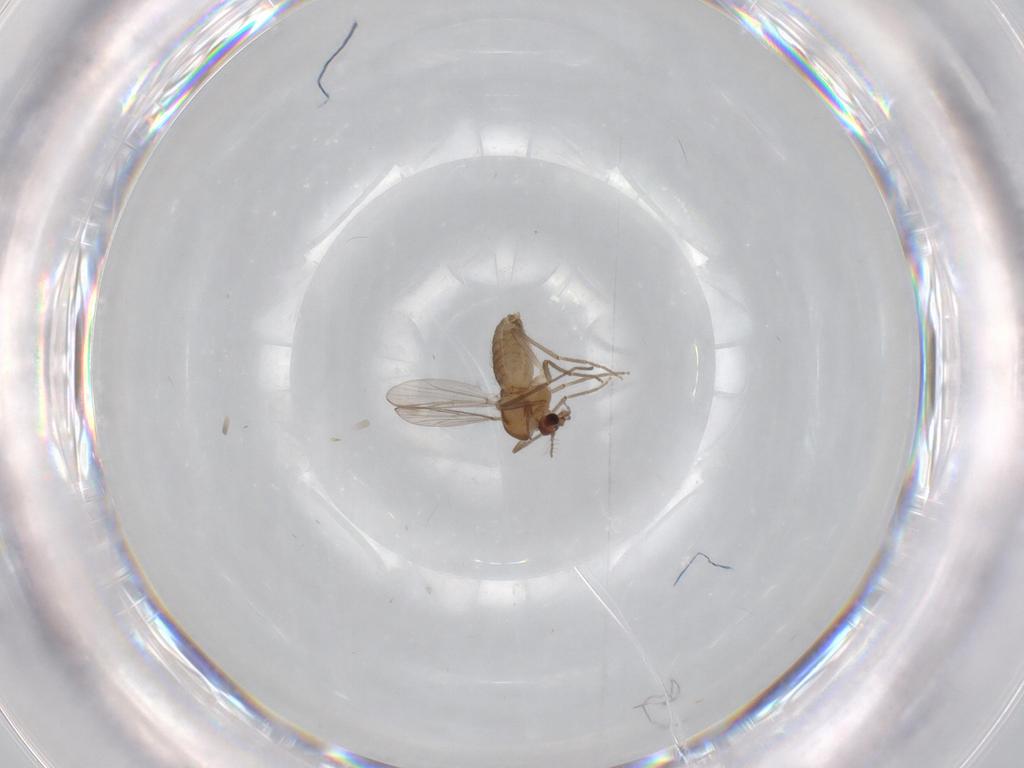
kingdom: Animalia
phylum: Arthropoda
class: Insecta
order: Diptera
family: Chironomidae
